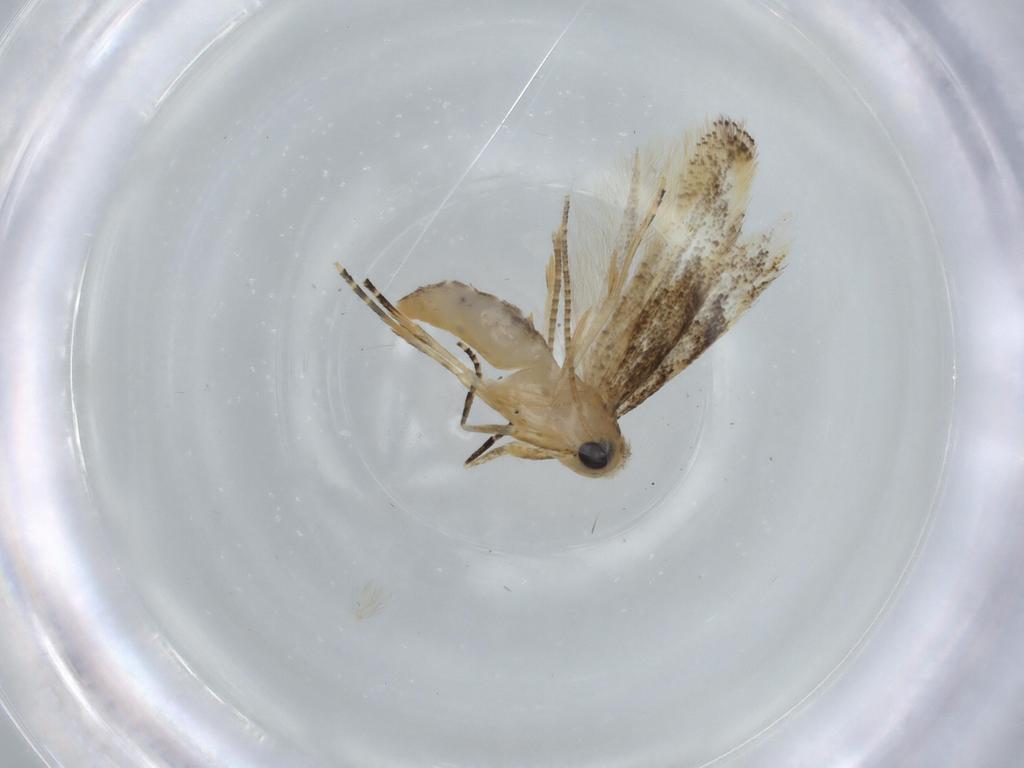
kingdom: Animalia
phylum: Arthropoda
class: Insecta
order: Lepidoptera
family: Bucculatricidae
